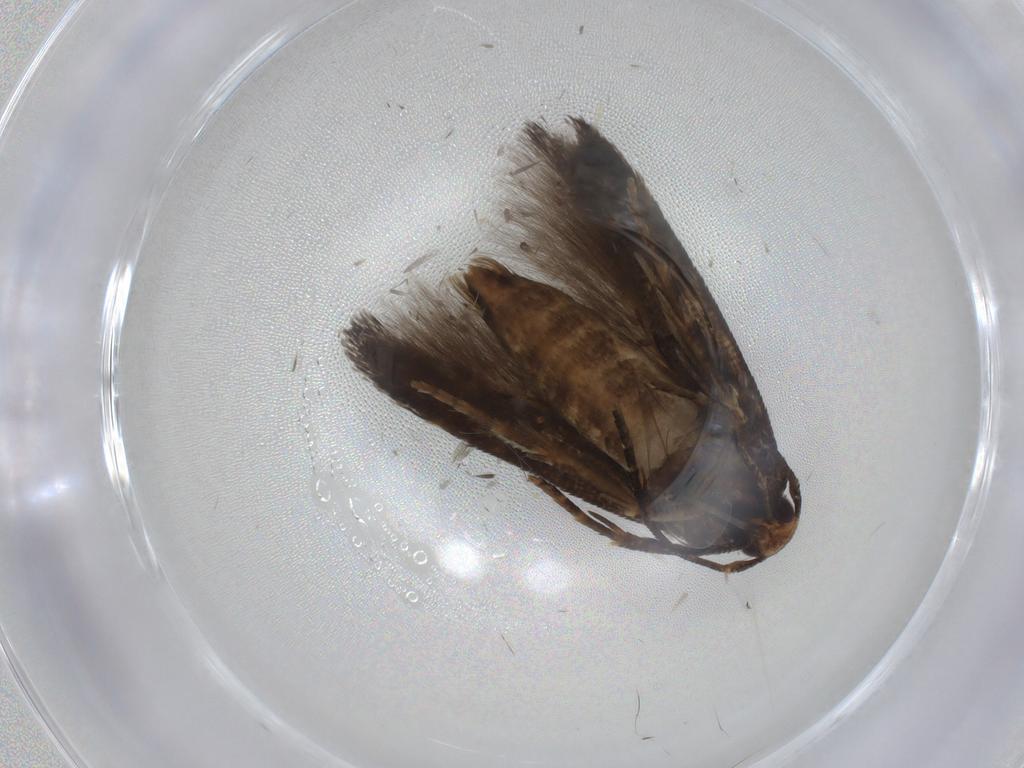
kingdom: Animalia
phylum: Arthropoda
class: Insecta
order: Lepidoptera
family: Cosmopterigidae
